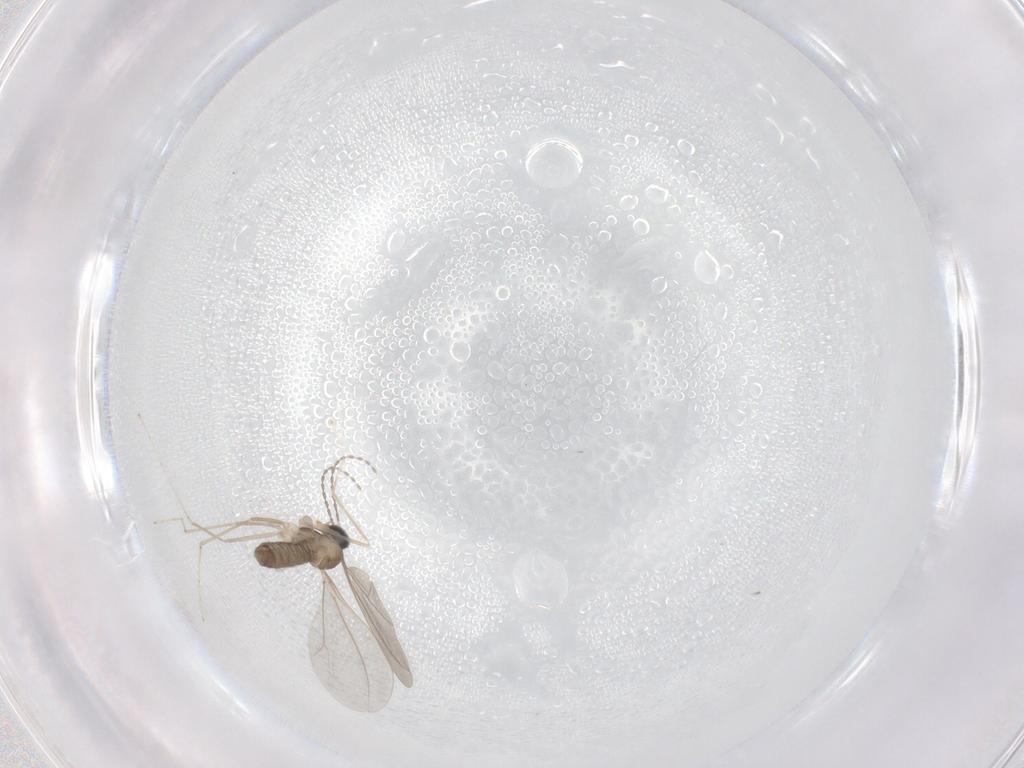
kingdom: Animalia
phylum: Arthropoda
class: Insecta
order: Diptera
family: Cecidomyiidae
